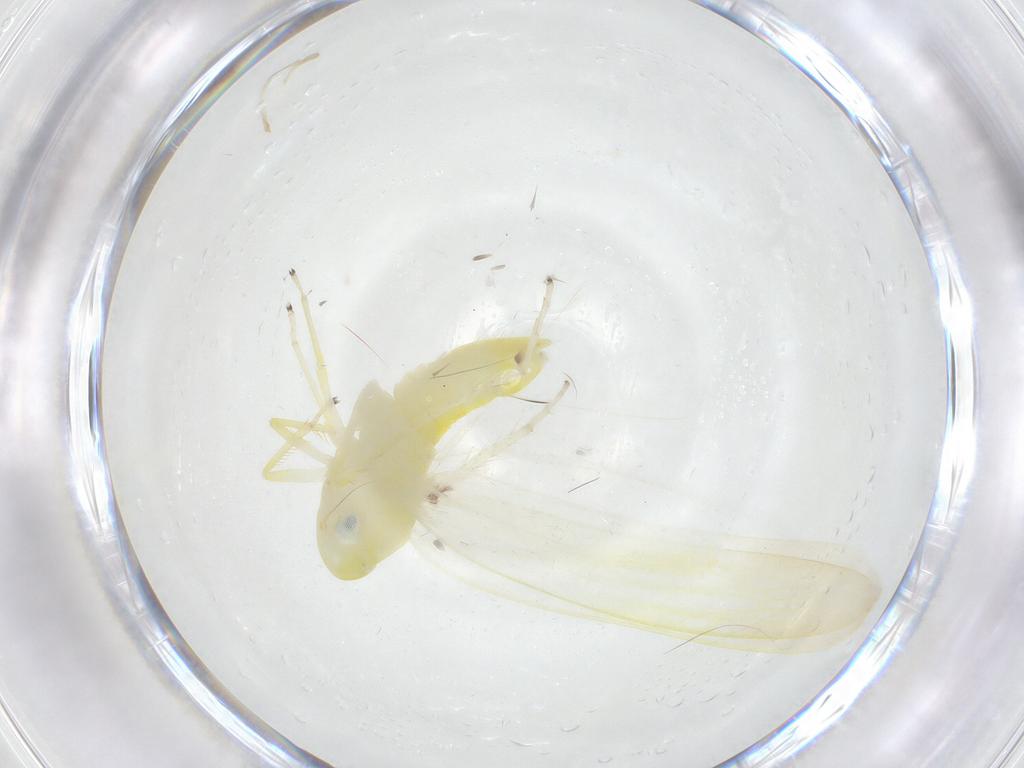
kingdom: Animalia
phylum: Arthropoda
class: Insecta
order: Hemiptera
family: Cicadellidae
